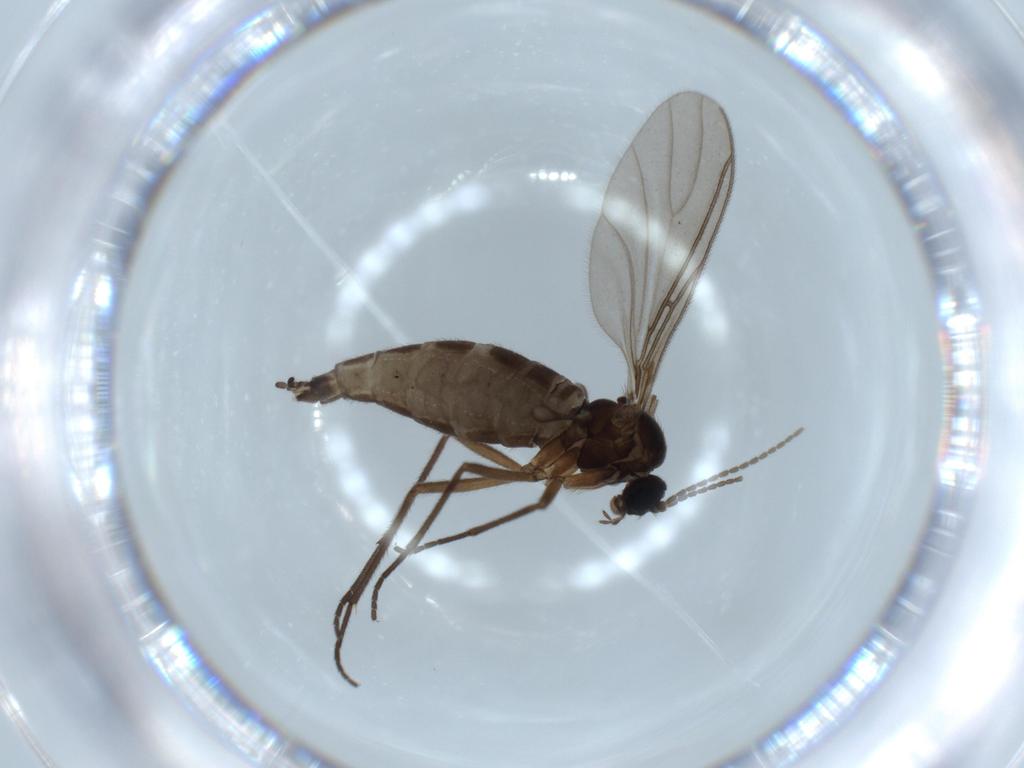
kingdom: Animalia
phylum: Arthropoda
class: Insecta
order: Diptera
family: Sciaridae
